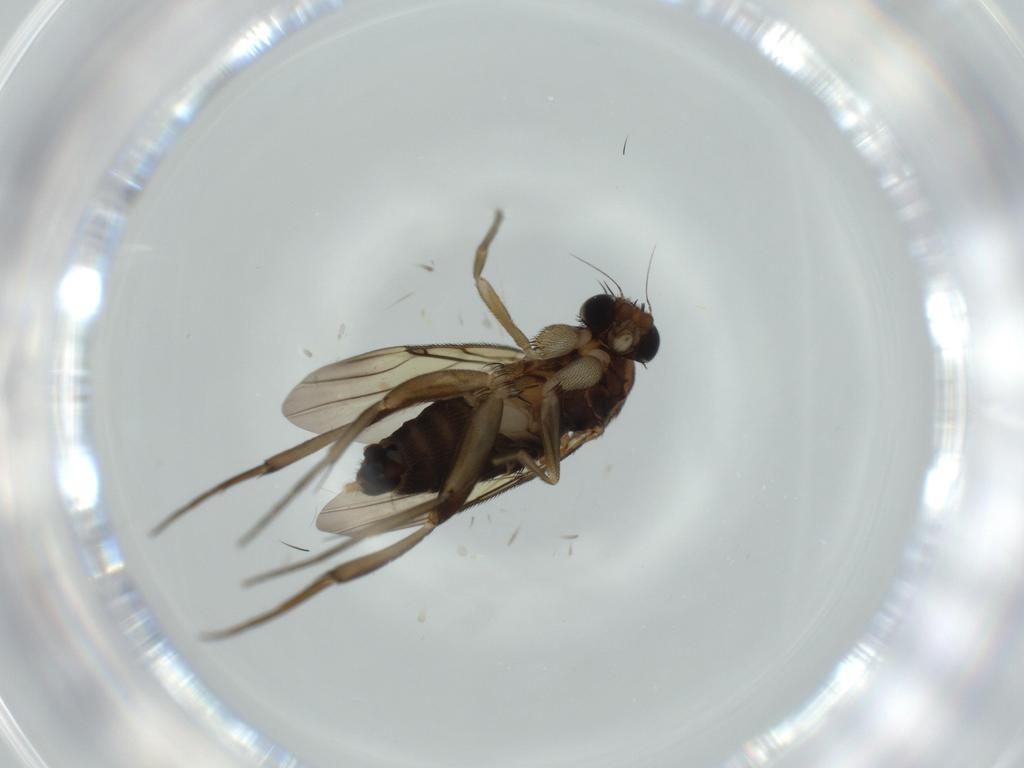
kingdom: Animalia
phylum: Arthropoda
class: Insecta
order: Diptera
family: Phoridae
